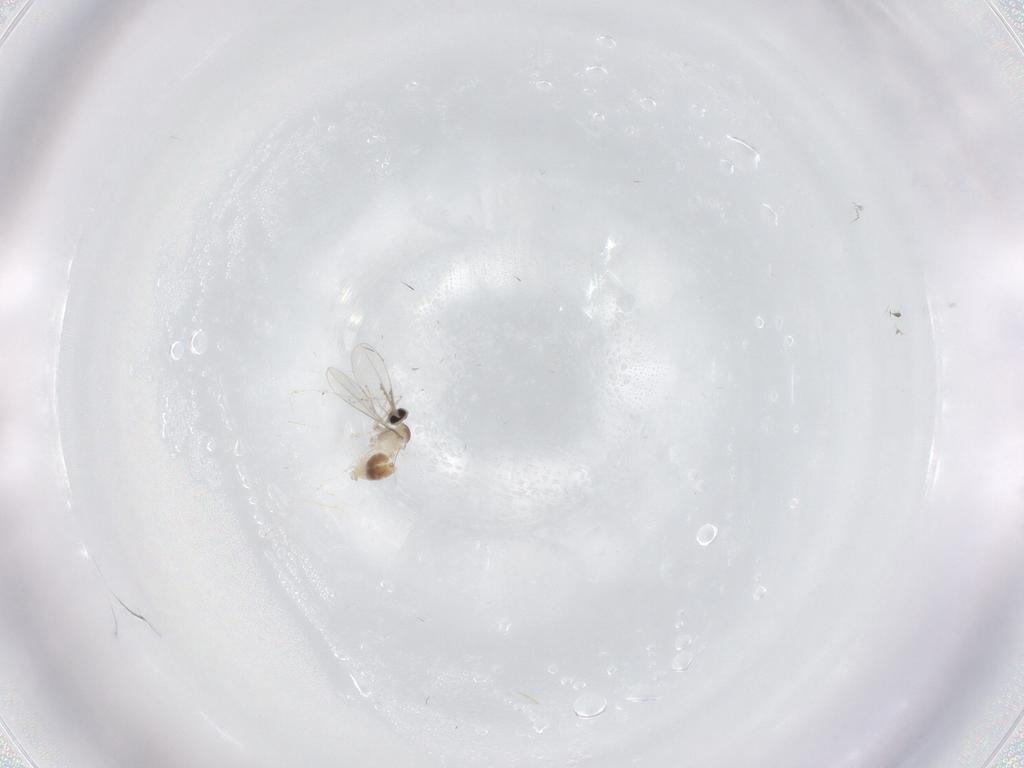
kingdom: Animalia
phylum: Arthropoda
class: Insecta
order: Diptera
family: Cecidomyiidae
